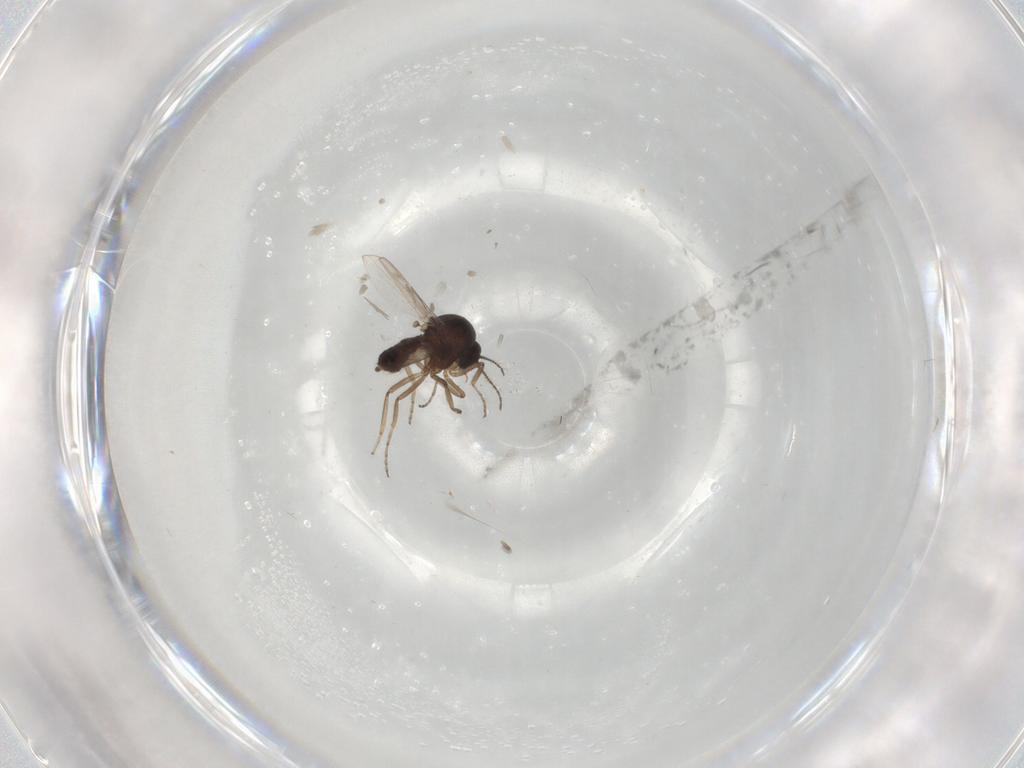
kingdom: Animalia
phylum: Arthropoda
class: Insecta
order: Diptera
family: Ceratopogonidae
